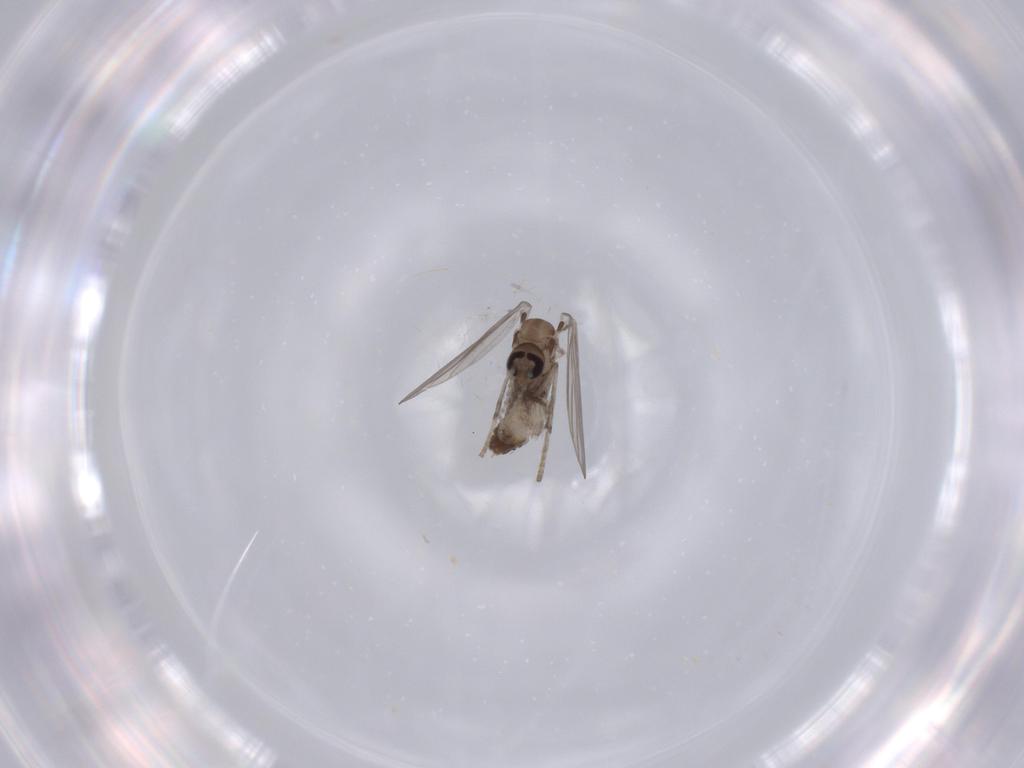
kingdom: Animalia
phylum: Arthropoda
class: Insecta
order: Diptera
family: Psychodidae
